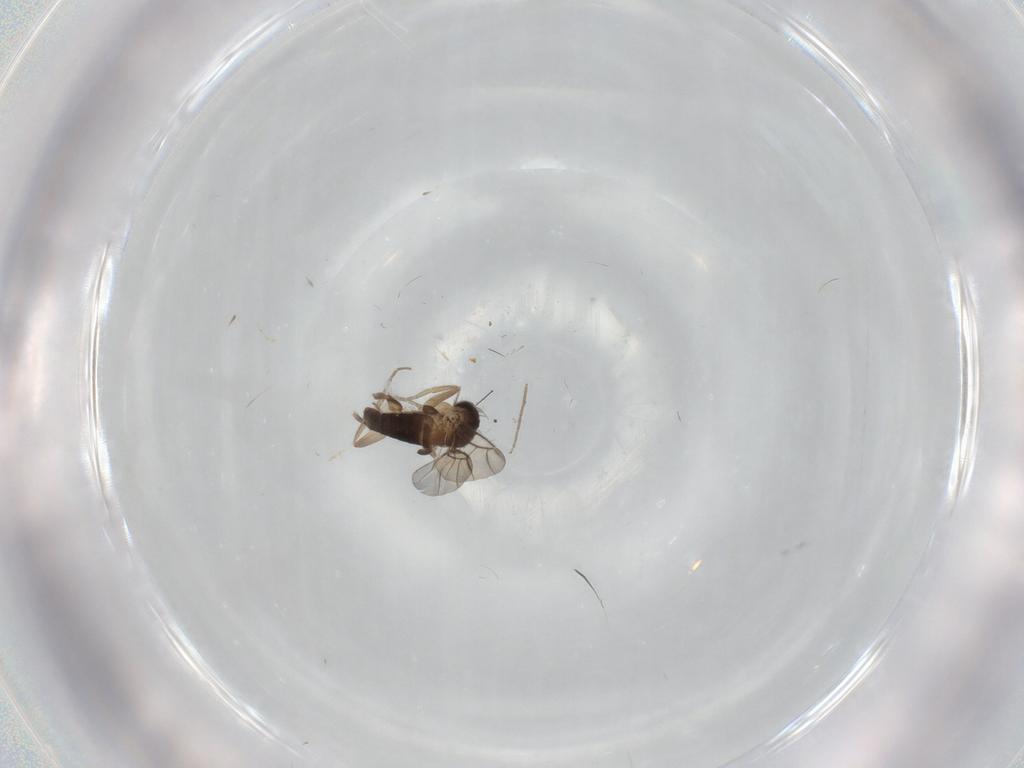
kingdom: Animalia
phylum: Arthropoda
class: Insecta
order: Diptera
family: Phoridae
